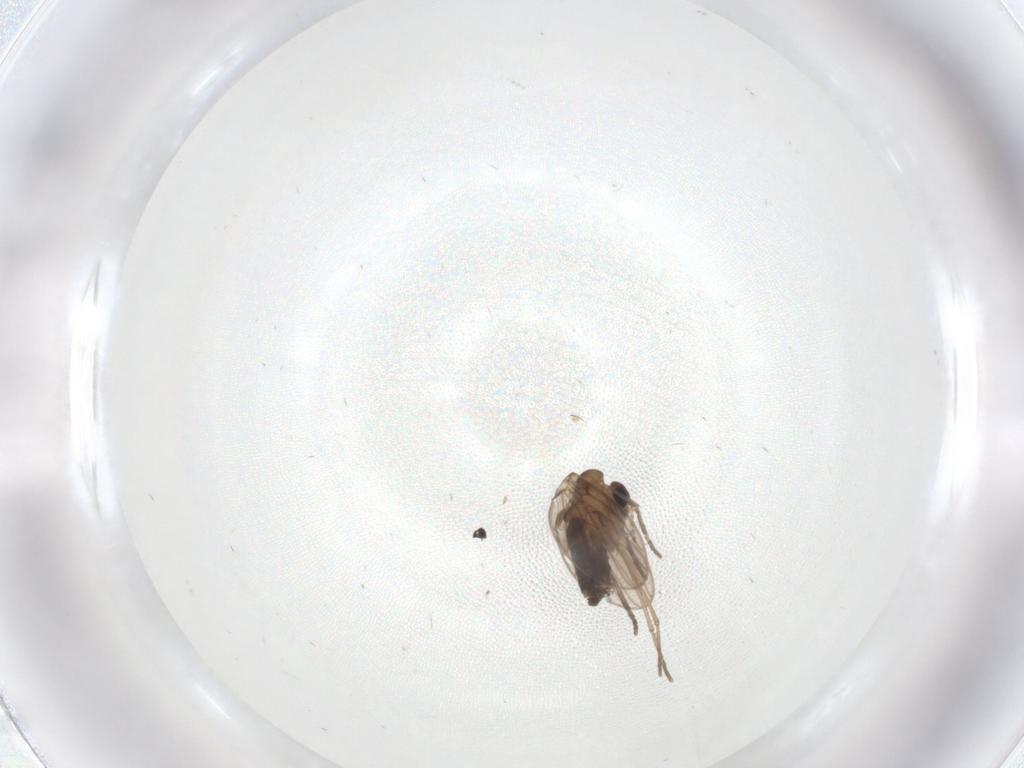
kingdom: Animalia
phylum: Arthropoda
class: Insecta
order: Diptera
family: Psychodidae
